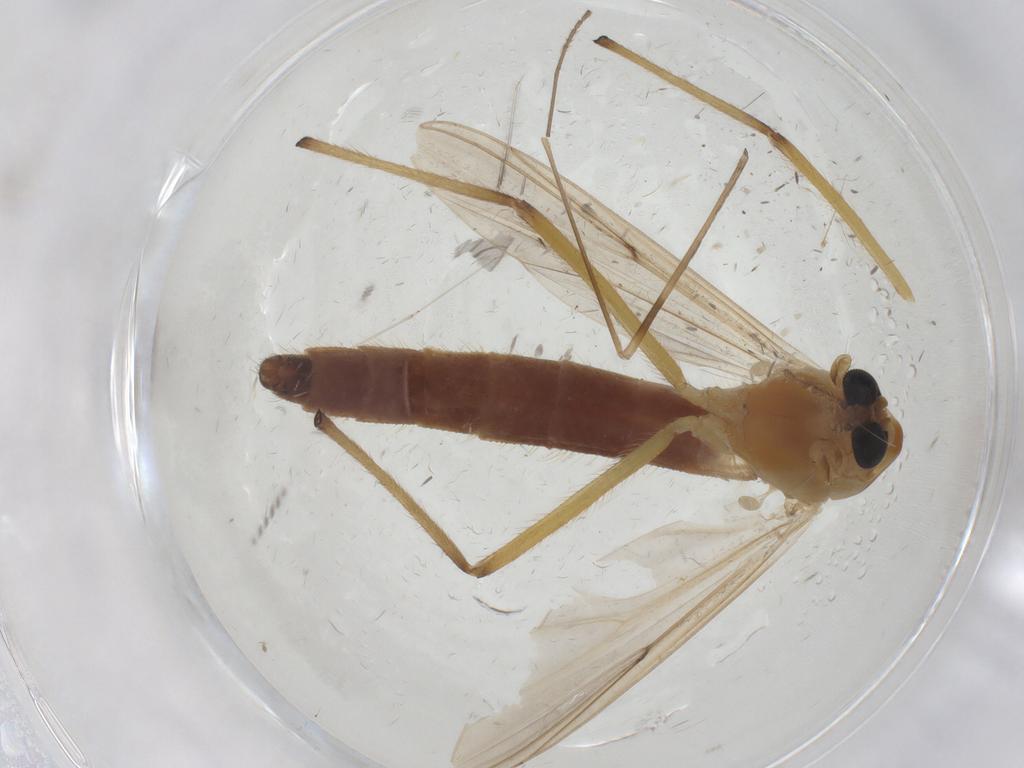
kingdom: Animalia
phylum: Arthropoda
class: Insecta
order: Diptera
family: Chironomidae
